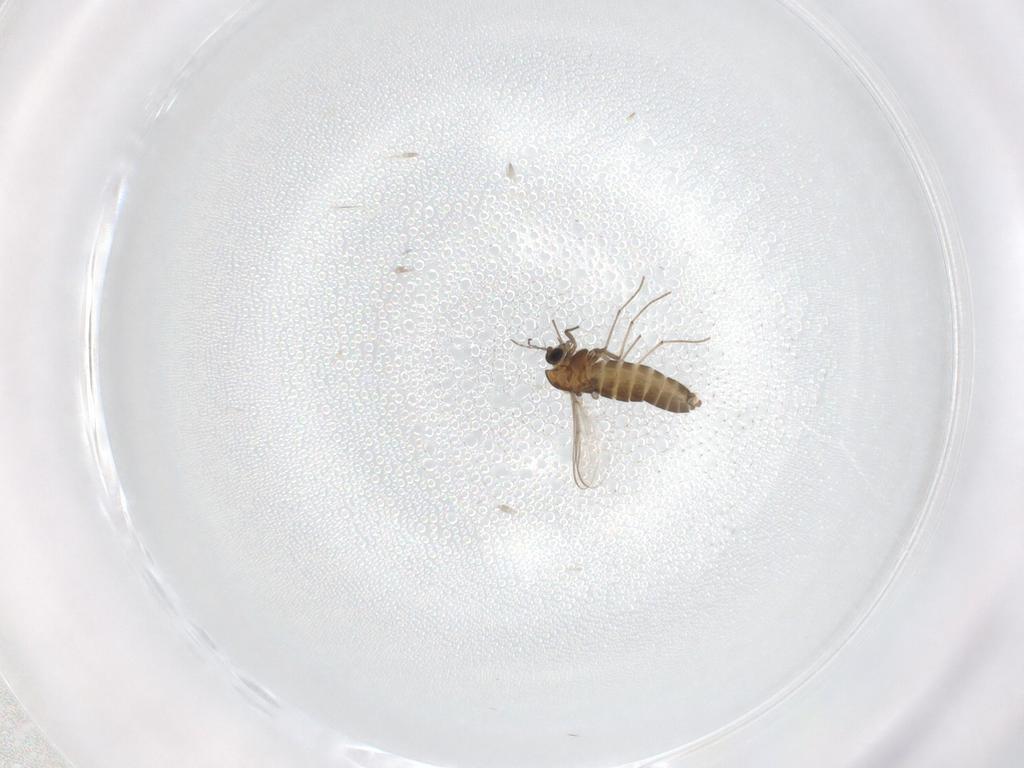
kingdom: Animalia
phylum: Arthropoda
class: Insecta
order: Diptera
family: Chironomidae
